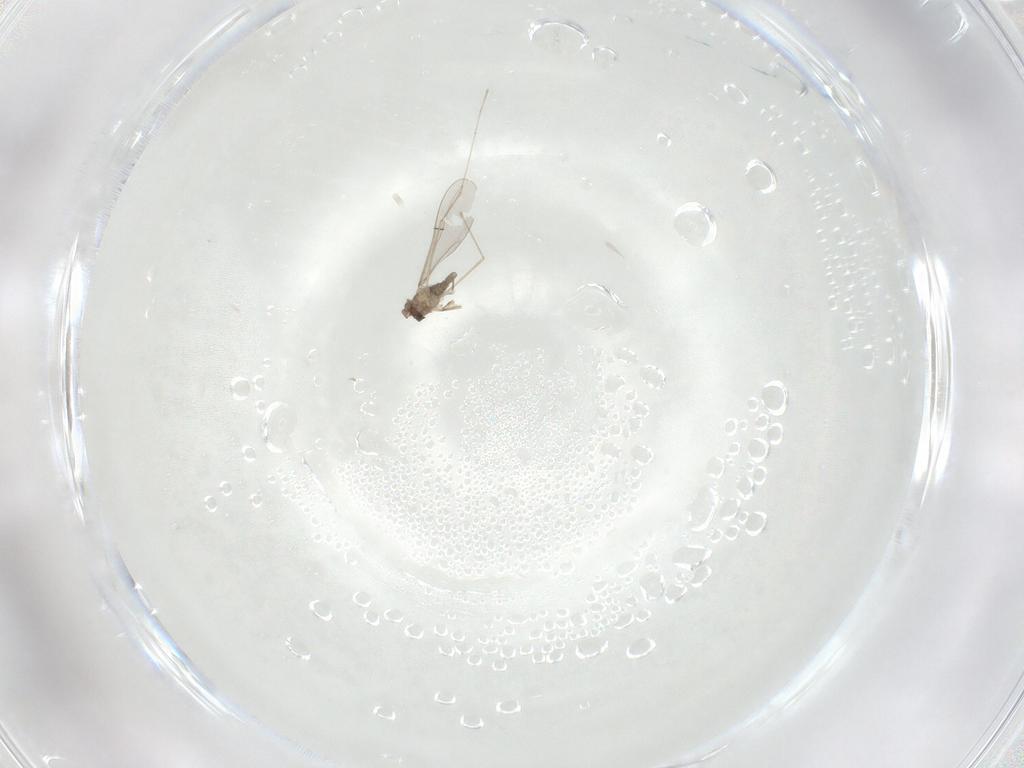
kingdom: Animalia
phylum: Arthropoda
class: Insecta
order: Diptera
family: Cecidomyiidae
